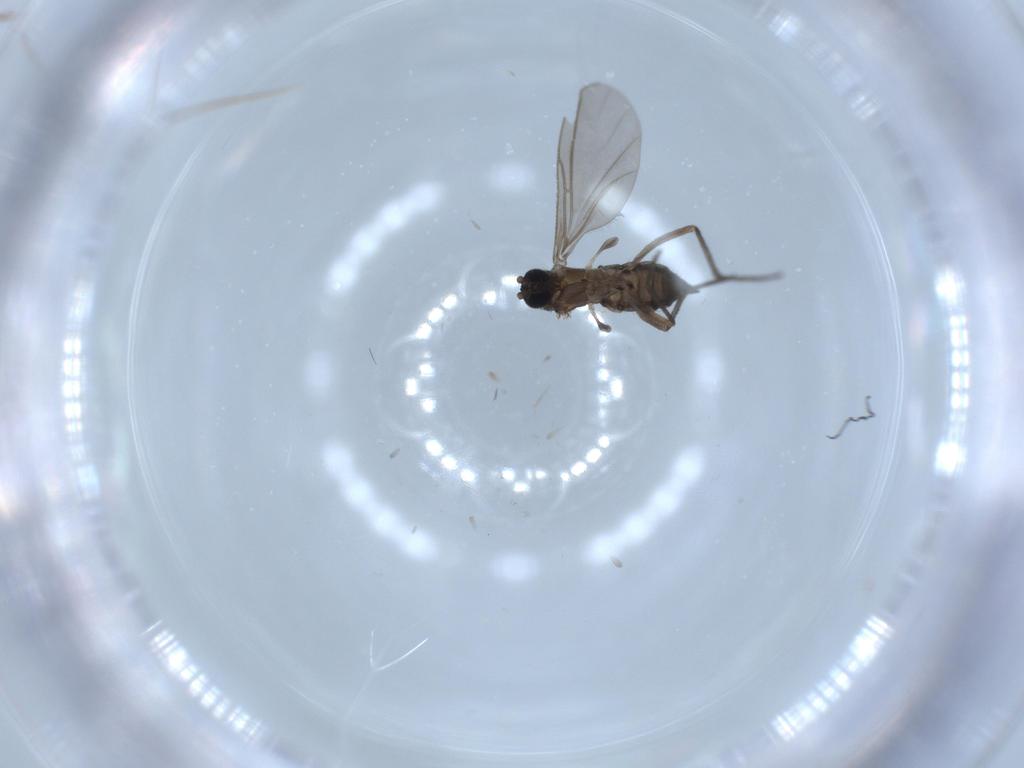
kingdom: Animalia
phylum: Arthropoda
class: Insecta
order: Diptera
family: Sciaridae
